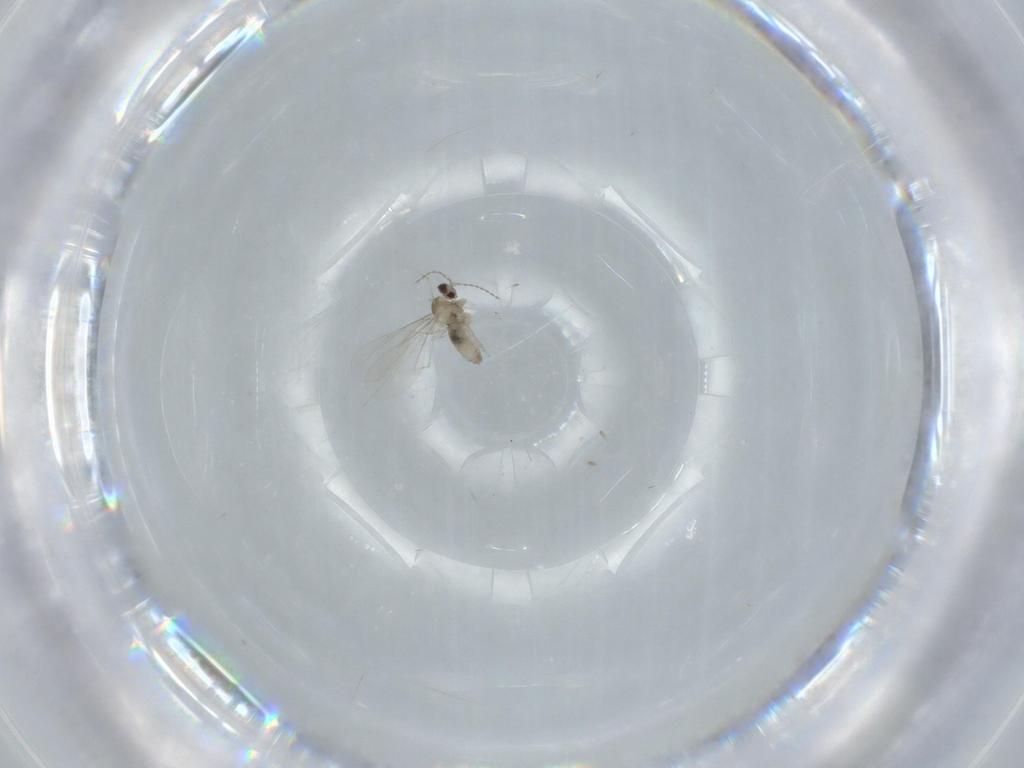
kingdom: Animalia
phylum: Arthropoda
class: Insecta
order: Diptera
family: Cecidomyiidae
